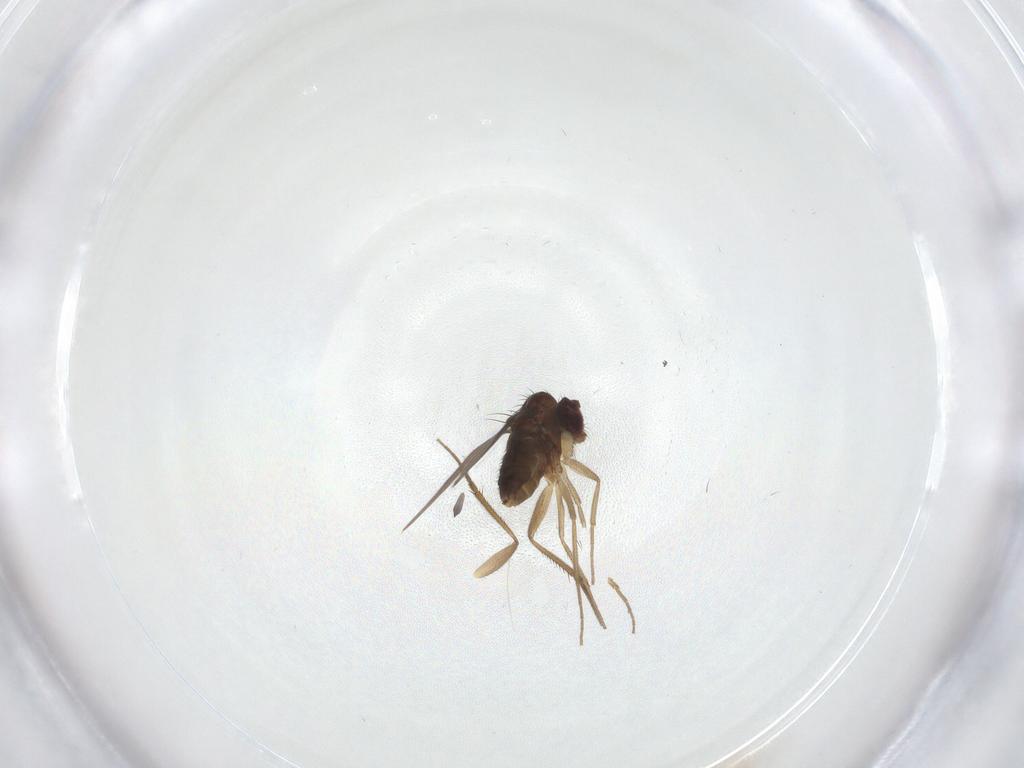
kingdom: Animalia
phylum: Arthropoda
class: Insecta
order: Diptera
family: Dolichopodidae
